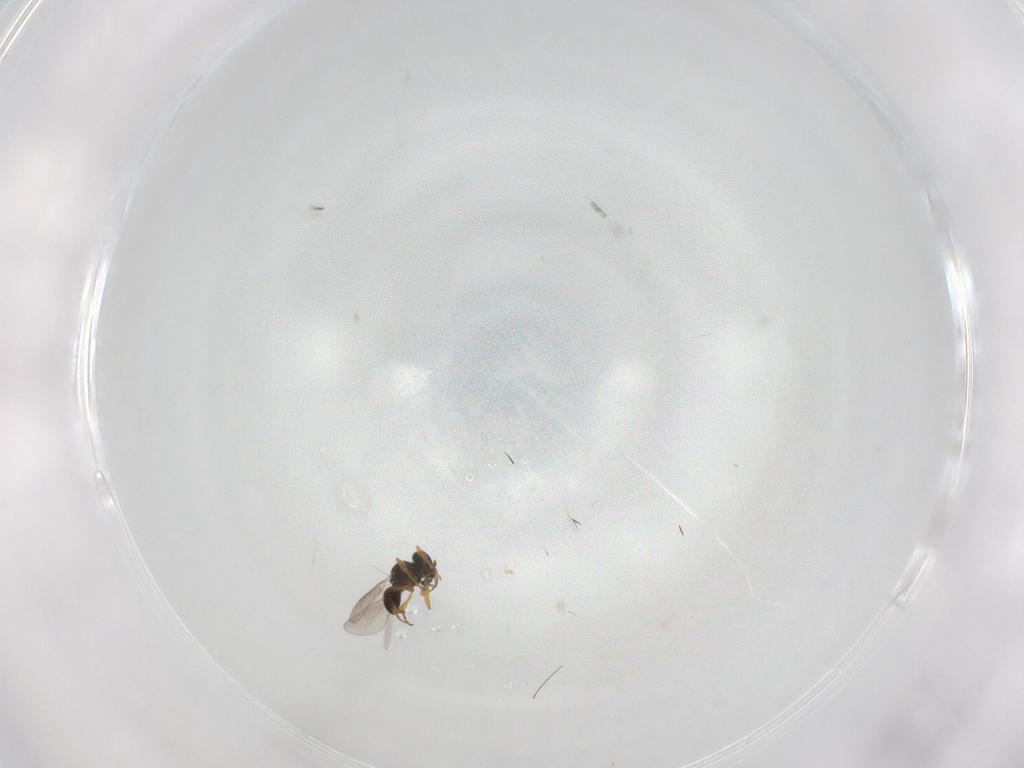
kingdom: Animalia
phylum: Arthropoda
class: Insecta
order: Hymenoptera
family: Platygastridae
